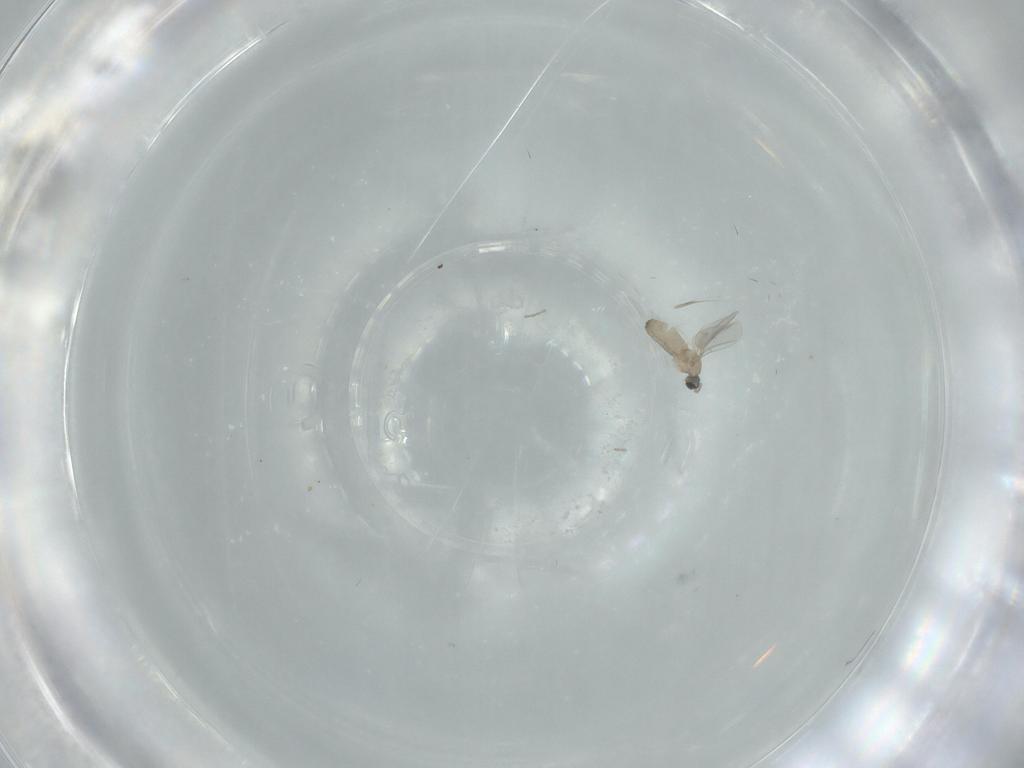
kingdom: Animalia
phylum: Arthropoda
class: Insecta
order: Diptera
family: Cecidomyiidae
